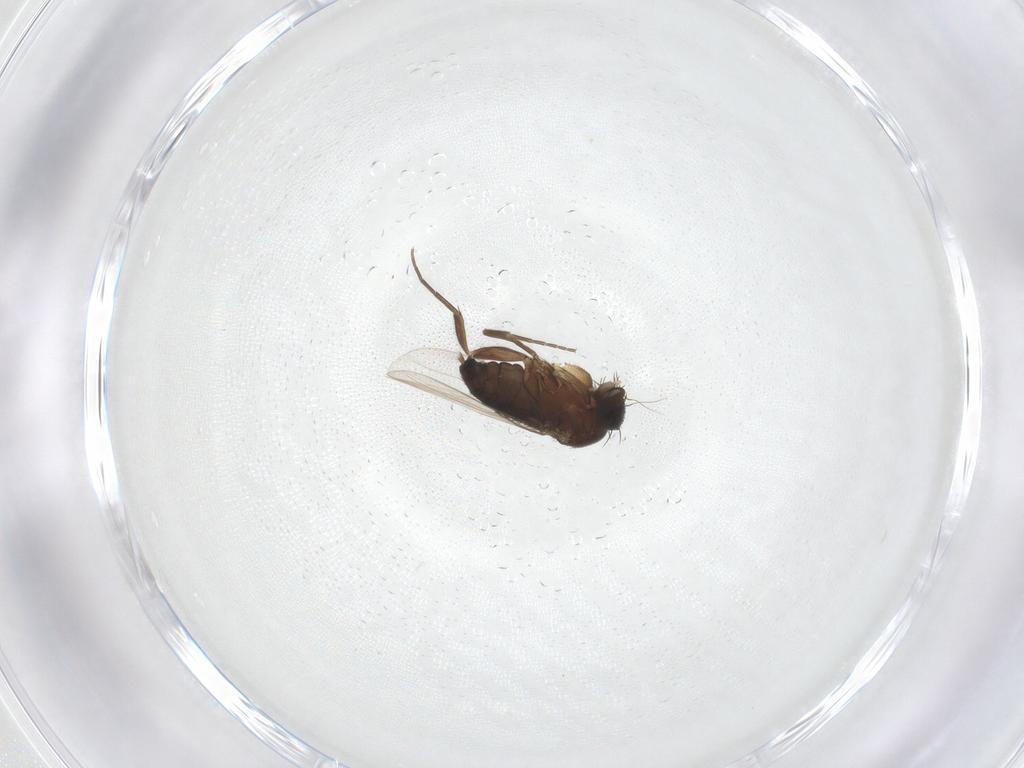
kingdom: Animalia
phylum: Arthropoda
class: Insecta
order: Diptera
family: Phoridae
